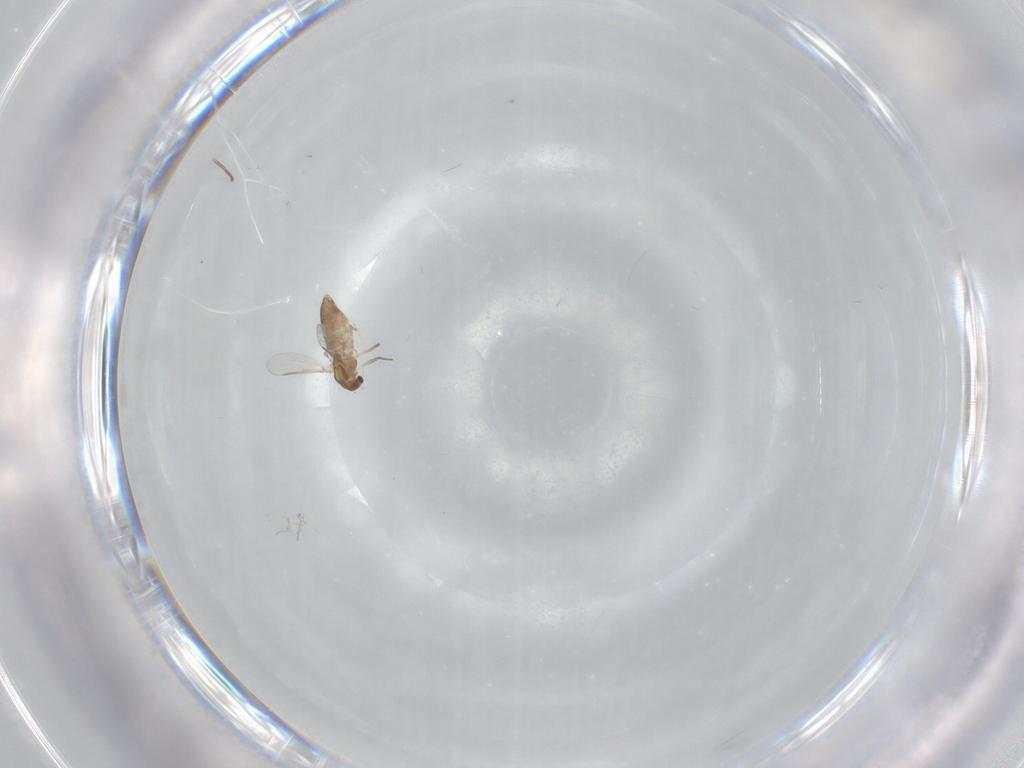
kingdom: Animalia
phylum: Arthropoda
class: Insecta
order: Diptera
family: Chironomidae
